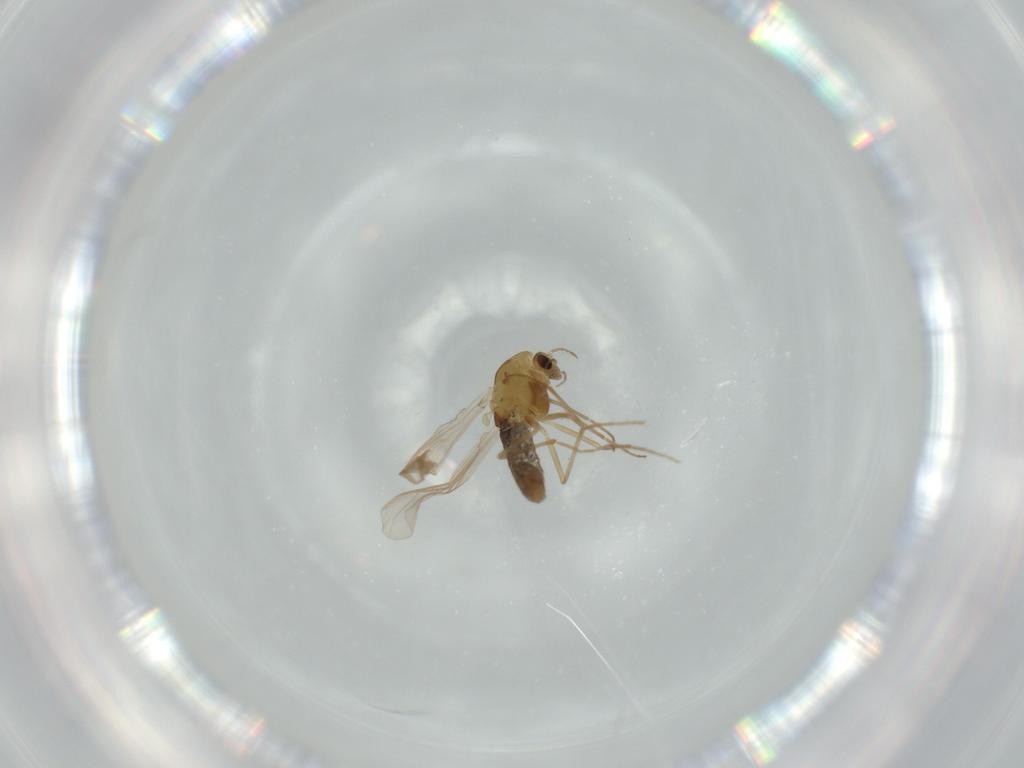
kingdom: Animalia
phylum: Arthropoda
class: Insecta
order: Diptera
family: Chironomidae
